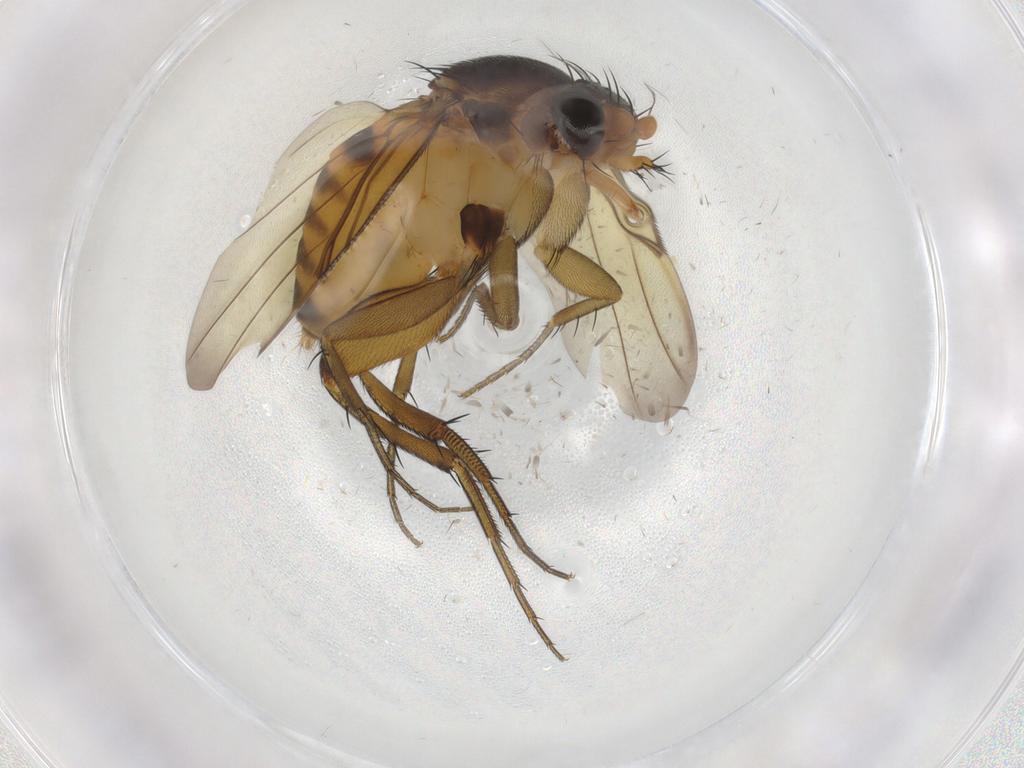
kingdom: Animalia
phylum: Arthropoda
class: Insecta
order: Diptera
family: Phoridae
